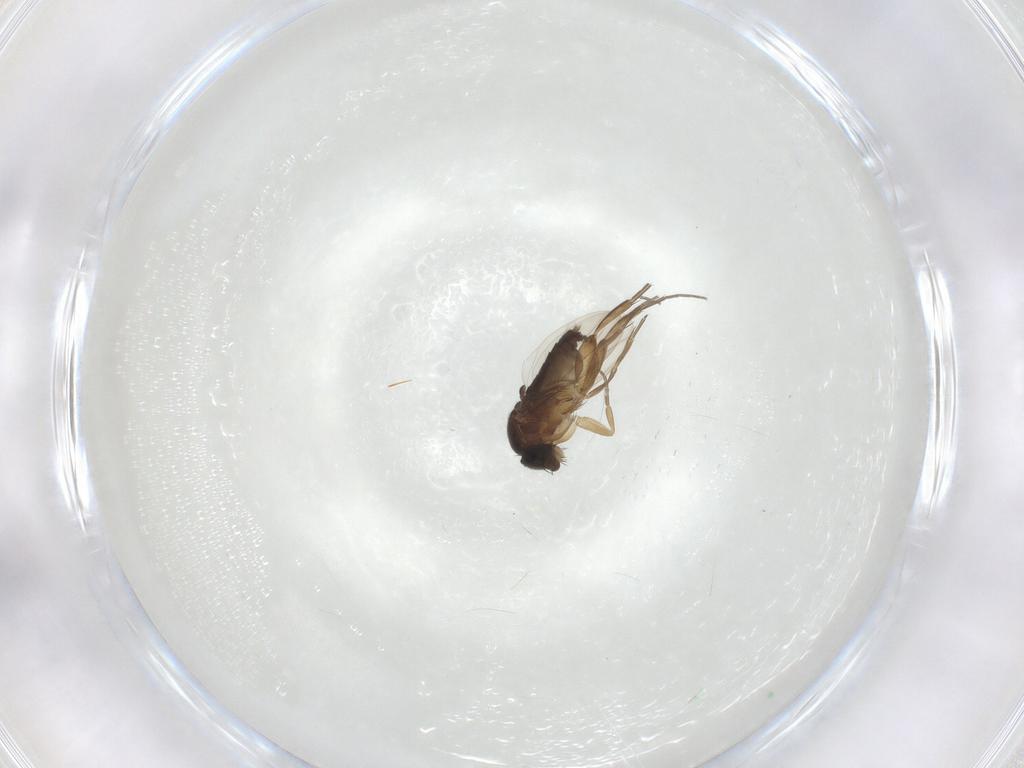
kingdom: Animalia
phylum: Arthropoda
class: Insecta
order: Diptera
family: Phoridae
